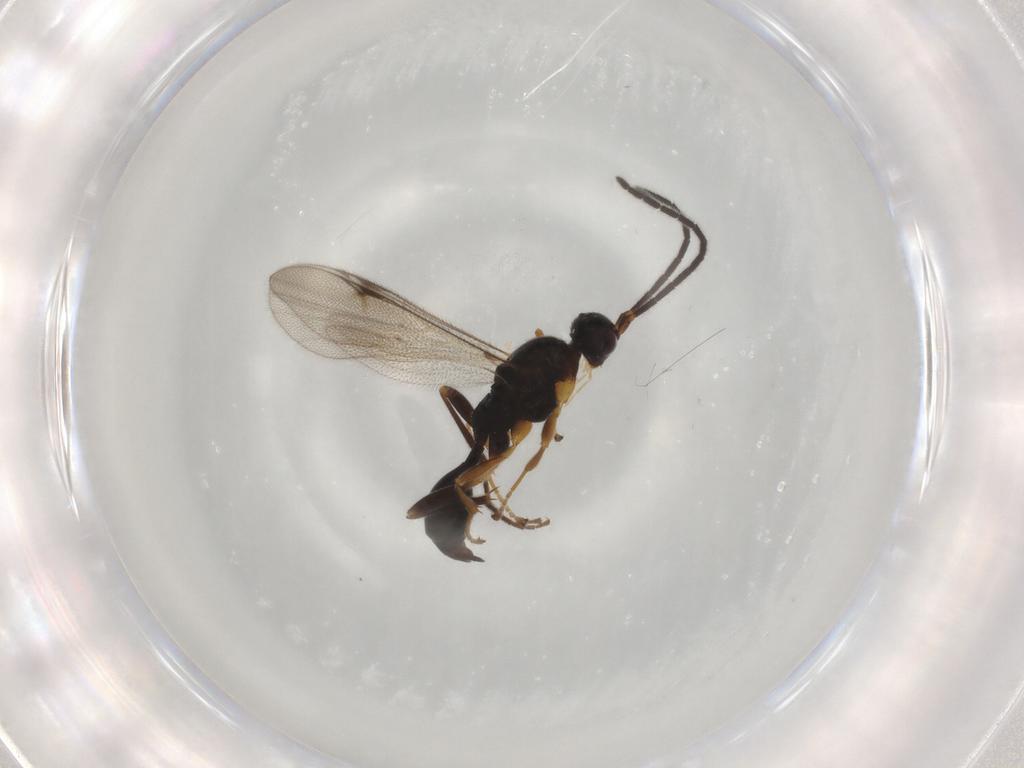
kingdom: Animalia
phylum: Arthropoda
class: Insecta
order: Hymenoptera
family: Proctotrupidae
